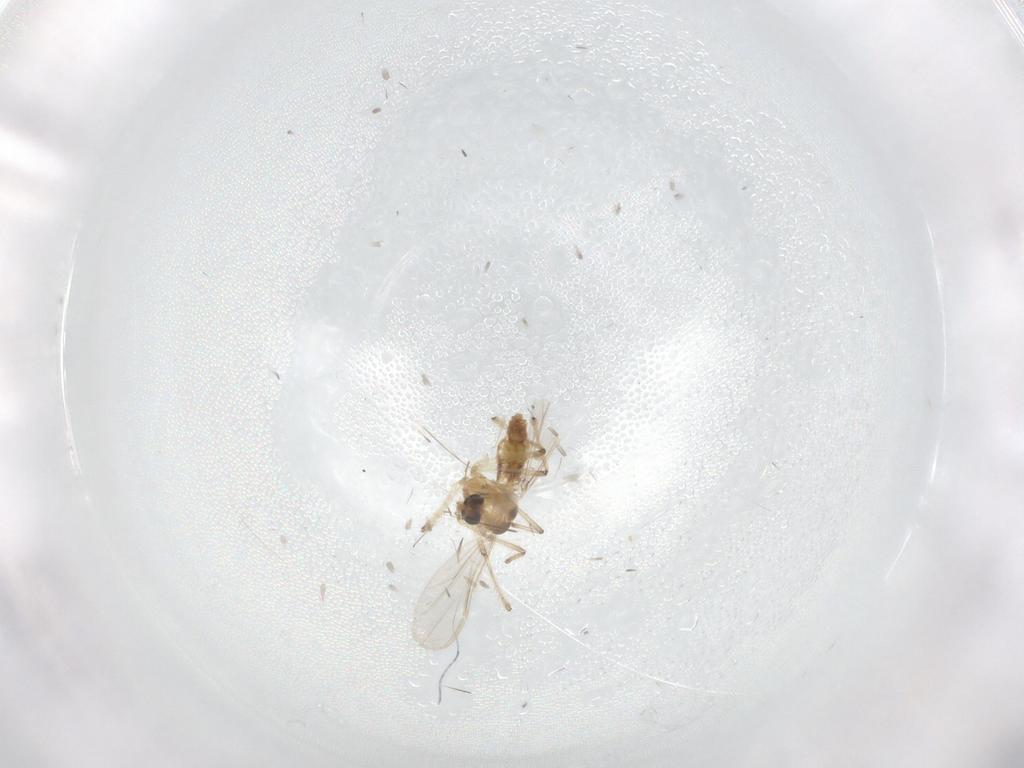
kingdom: Animalia
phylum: Arthropoda
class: Insecta
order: Diptera
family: Chironomidae
